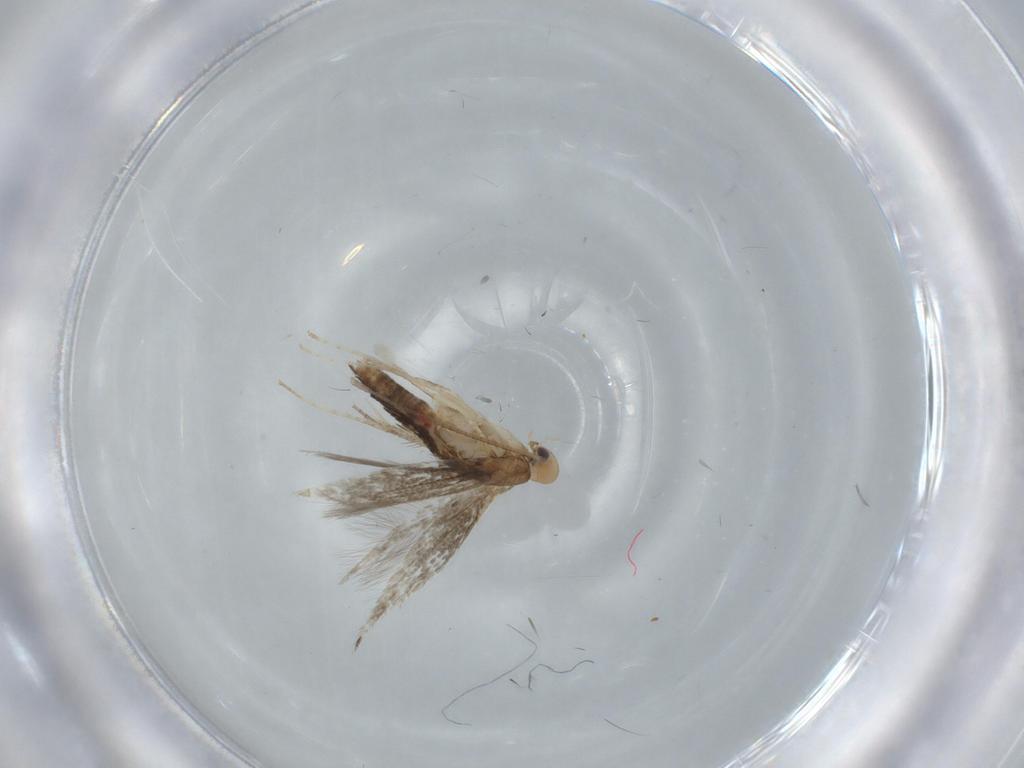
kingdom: Animalia
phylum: Arthropoda
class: Insecta
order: Lepidoptera
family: Nepticulidae
